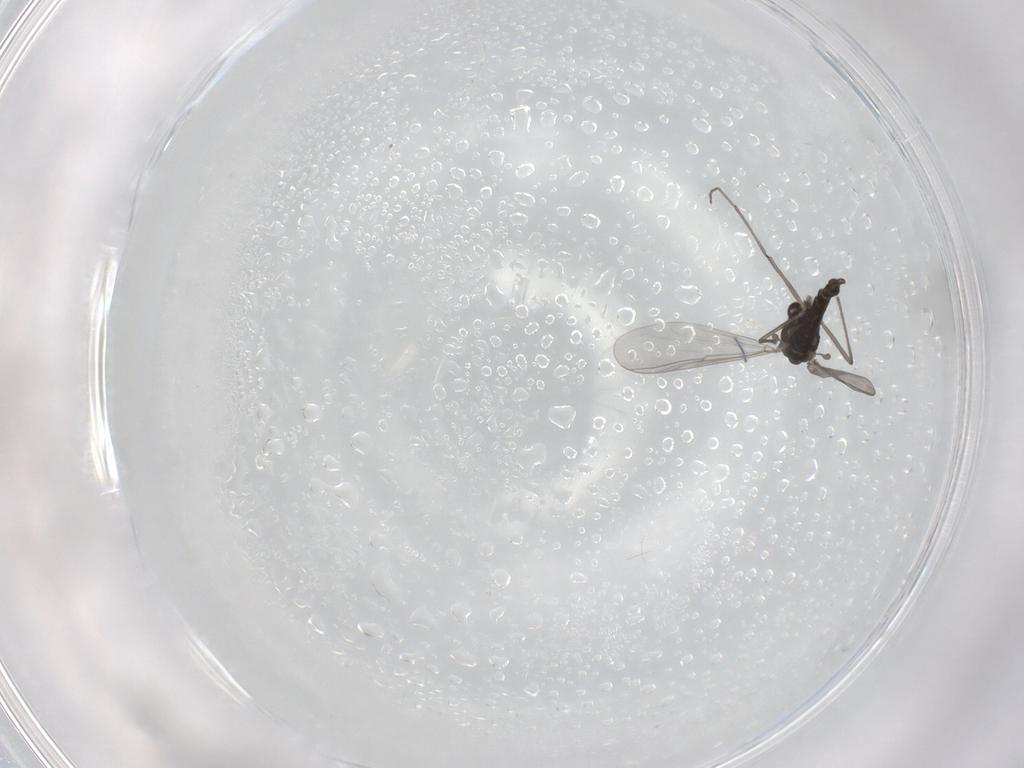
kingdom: Animalia
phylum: Arthropoda
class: Insecta
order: Diptera
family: Chironomidae
